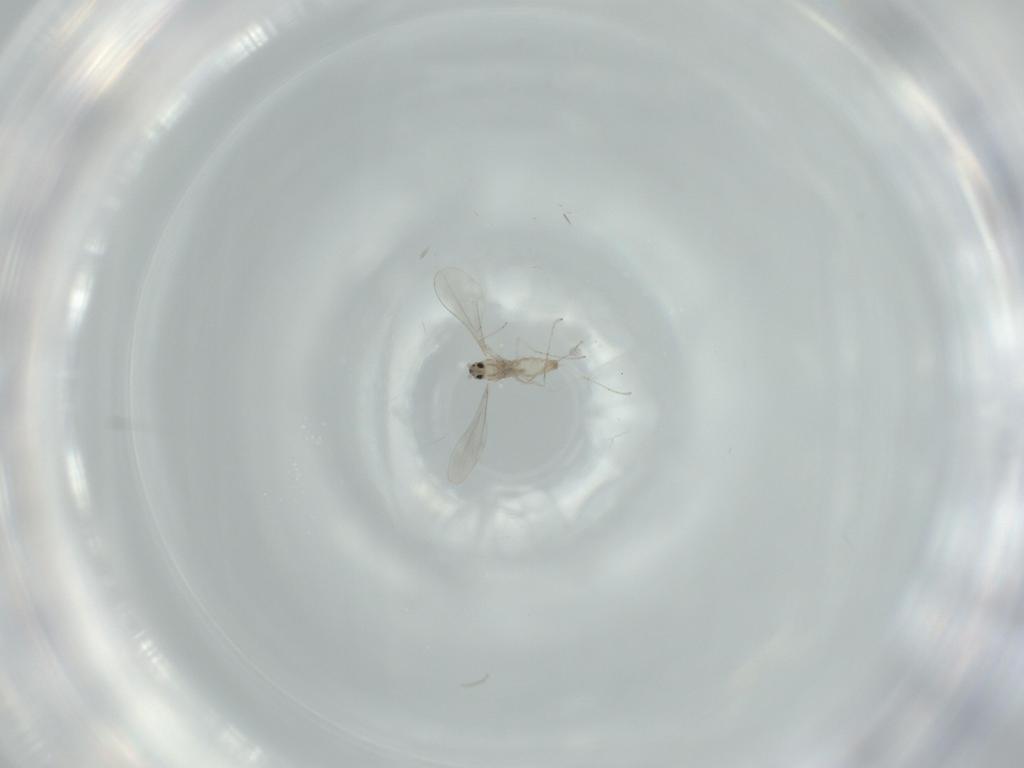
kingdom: Animalia
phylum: Arthropoda
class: Insecta
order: Diptera
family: Cecidomyiidae
